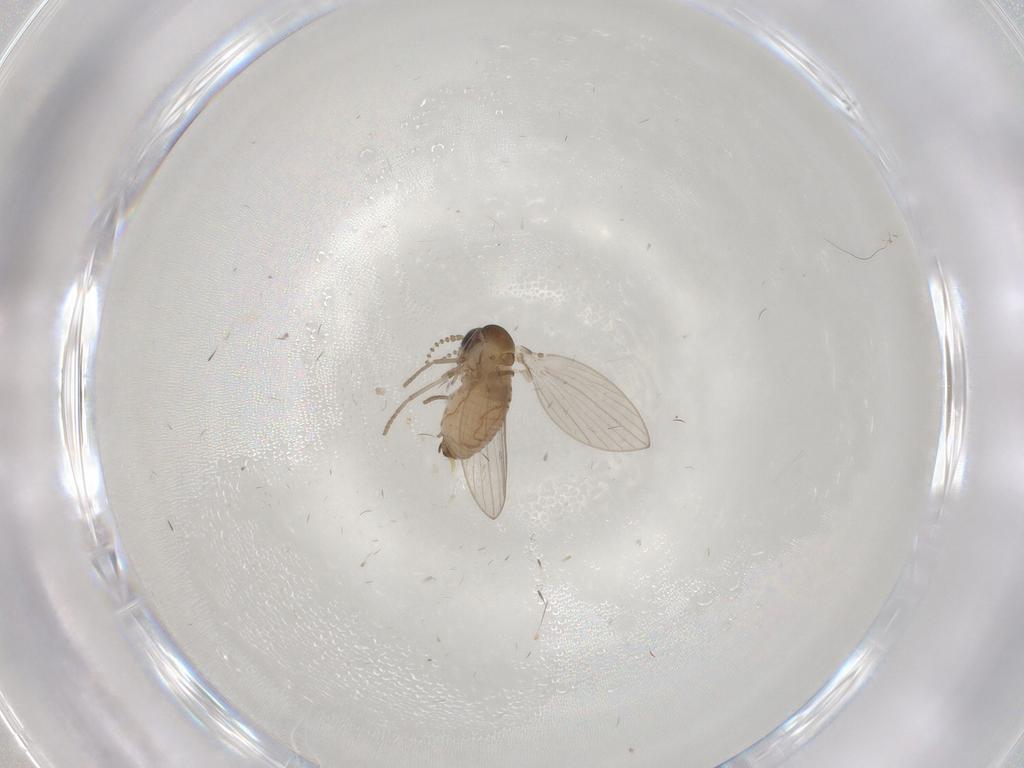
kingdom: Animalia
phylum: Arthropoda
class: Insecta
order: Diptera
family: Psychodidae
